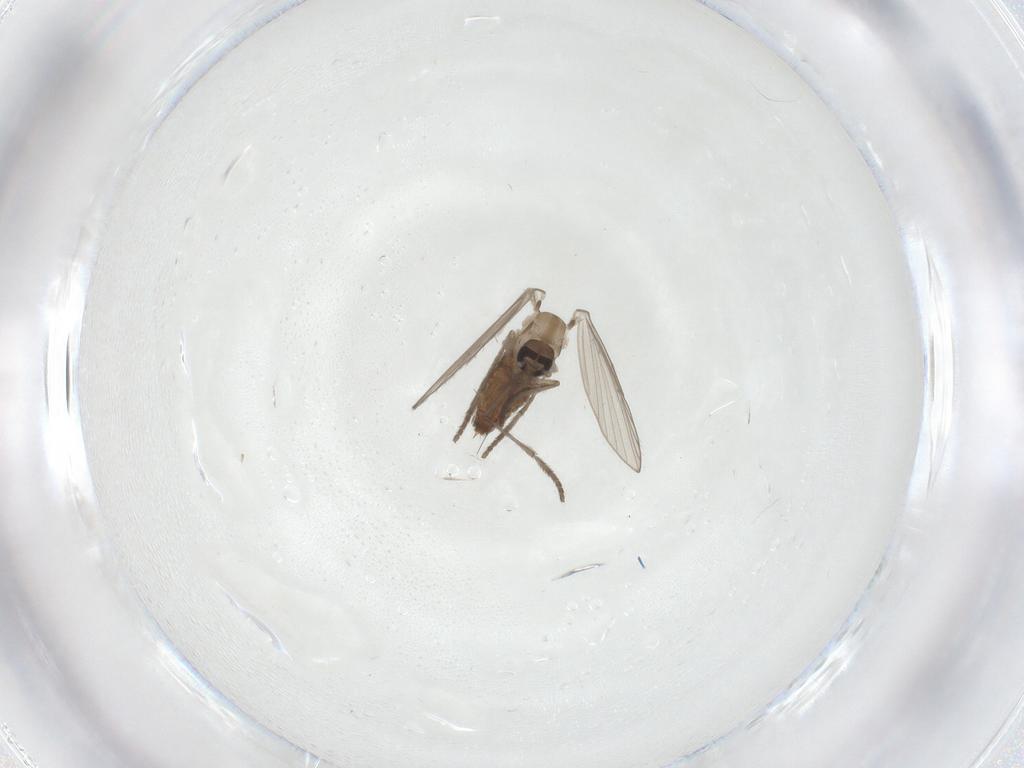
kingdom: Animalia
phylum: Arthropoda
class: Insecta
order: Diptera
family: Psychodidae
